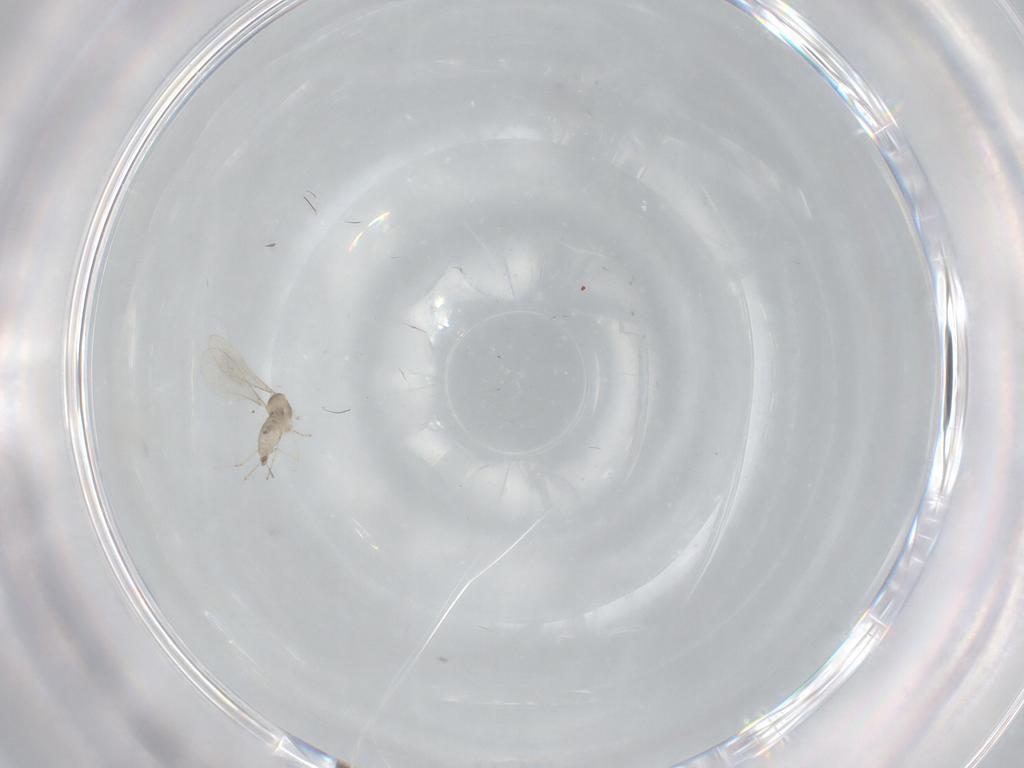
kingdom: Animalia
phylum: Arthropoda
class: Insecta
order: Diptera
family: Cecidomyiidae
